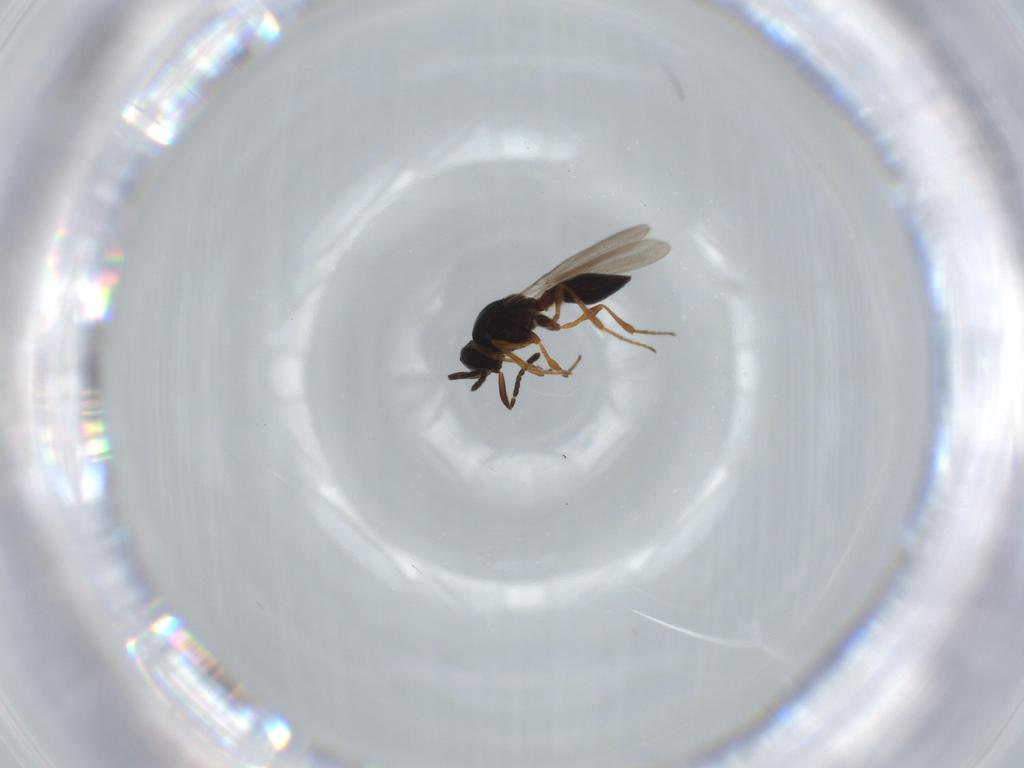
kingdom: Animalia
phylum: Arthropoda
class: Insecta
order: Hymenoptera
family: Platygastridae
